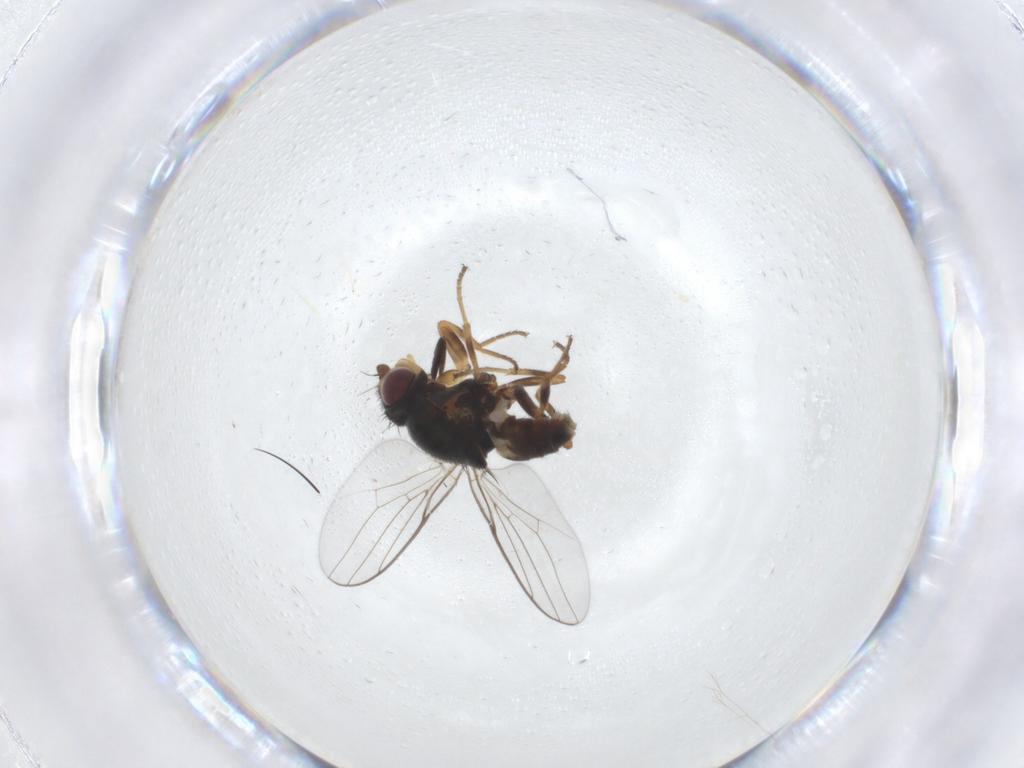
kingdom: Animalia
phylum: Arthropoda
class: Insecta
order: Diptera
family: Chloropidae
